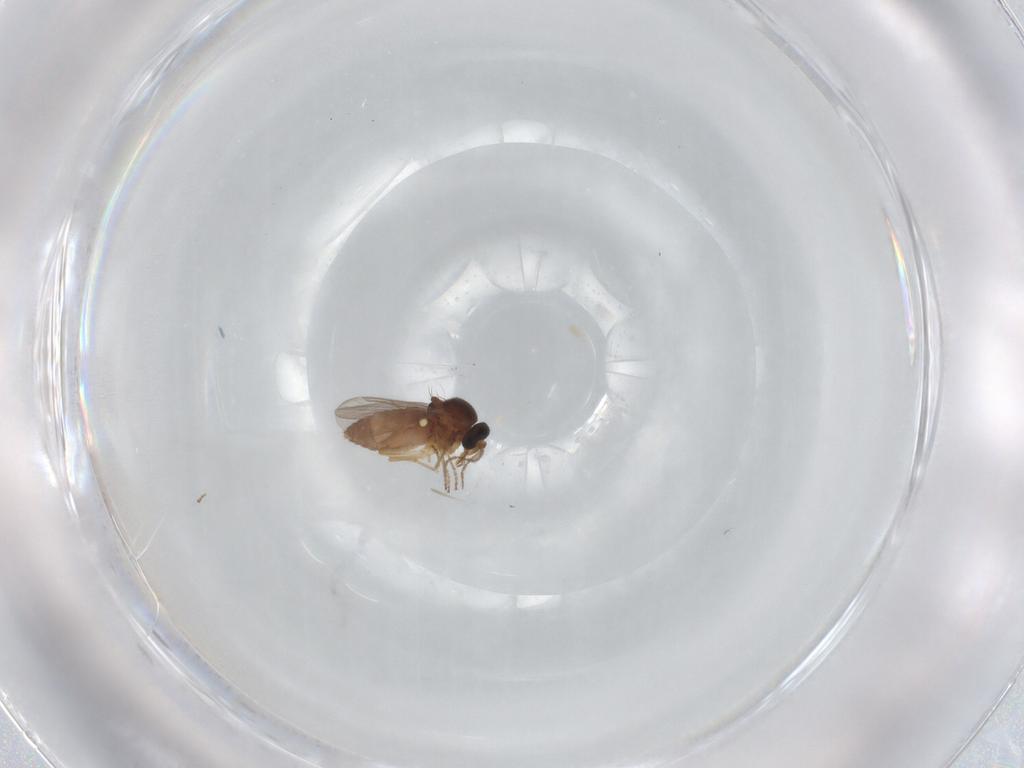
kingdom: Animalia
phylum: Arthropoda
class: Insecta
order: Diptera
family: Ceratopogonidae
